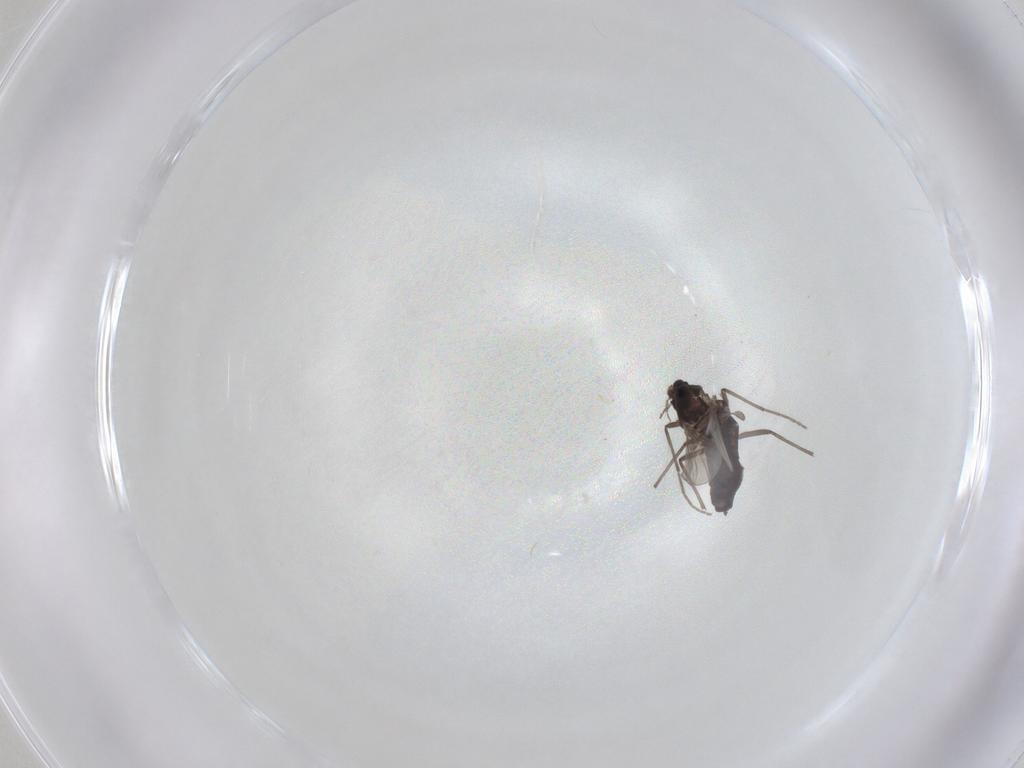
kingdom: Animalia
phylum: Arthropoda
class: Insecta
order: Diptera
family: Chironomidae
